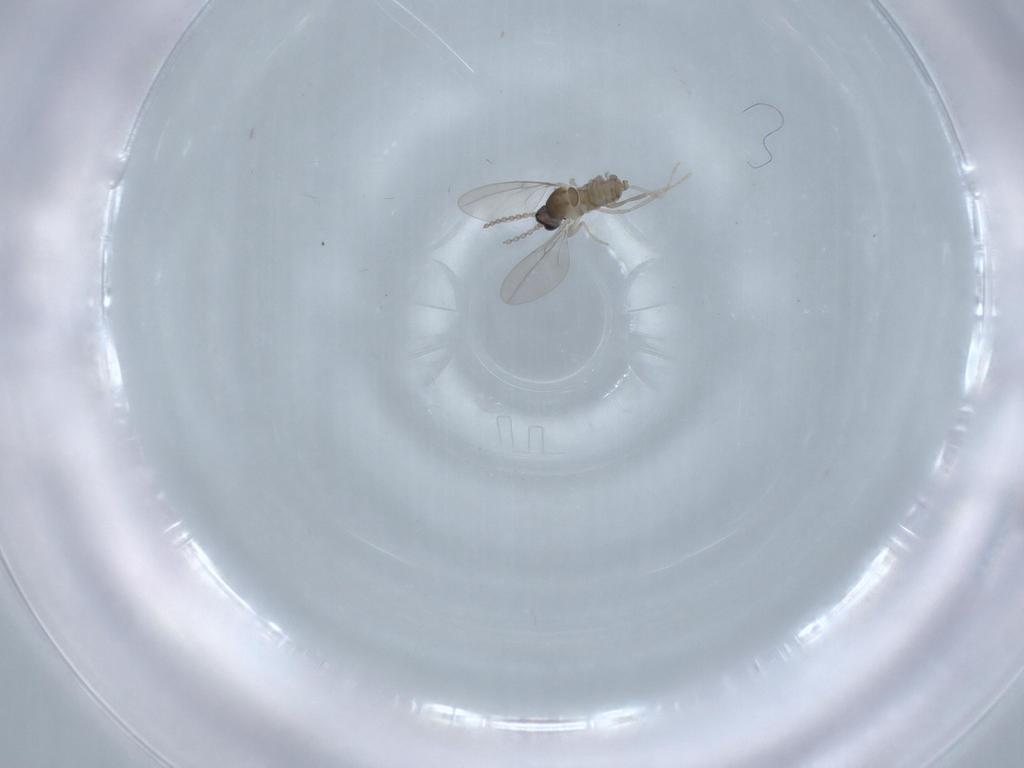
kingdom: Animalia
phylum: Arthropoda
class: Insecta
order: Diptera
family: Cecidomyiidae
